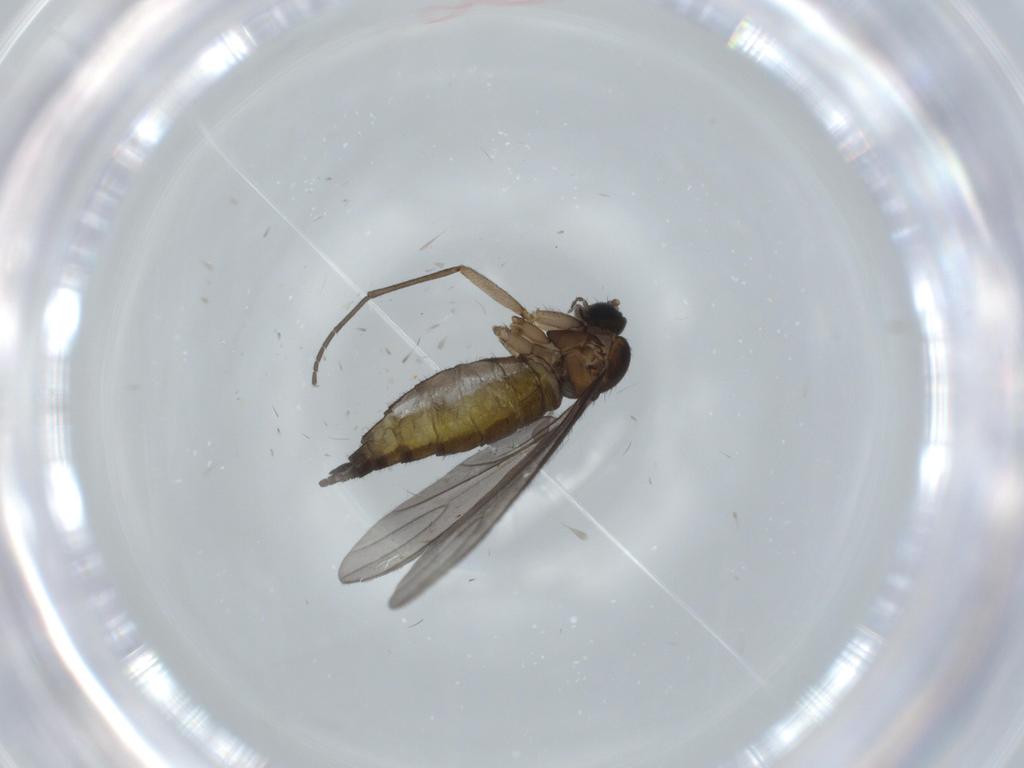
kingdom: Animalia
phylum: Arthropoda
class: Insecta
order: Diptera
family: Sciaridae
